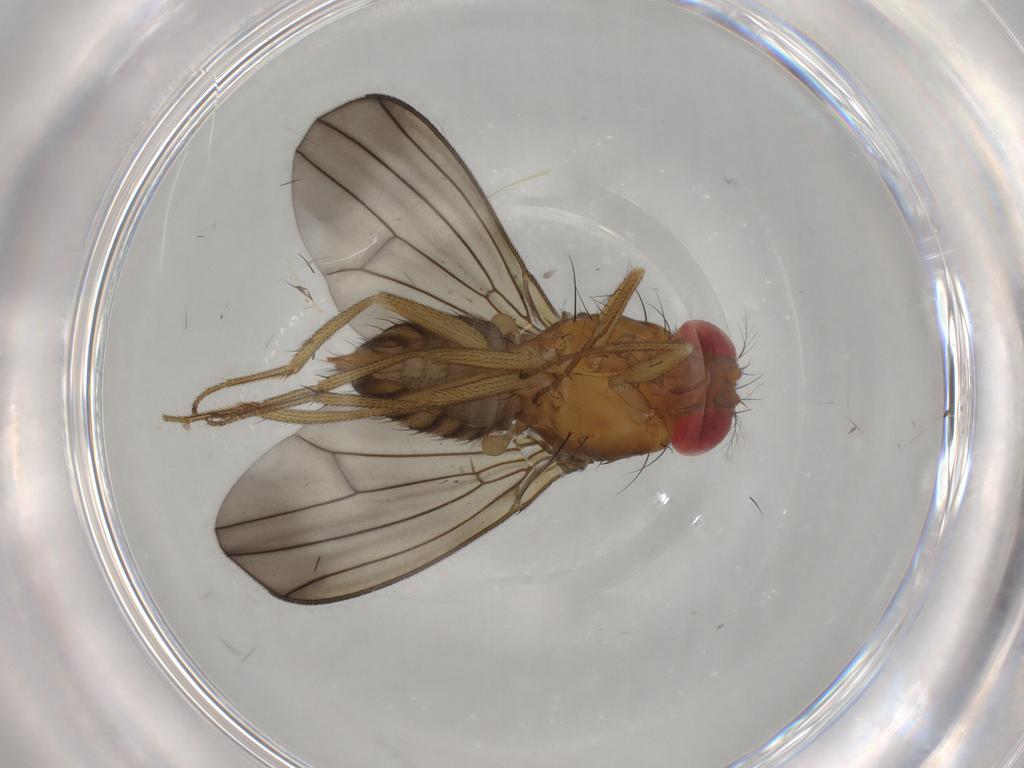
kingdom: Animalia
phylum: Arthropoda
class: Insecta
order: Diptera
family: Drosophilidae
